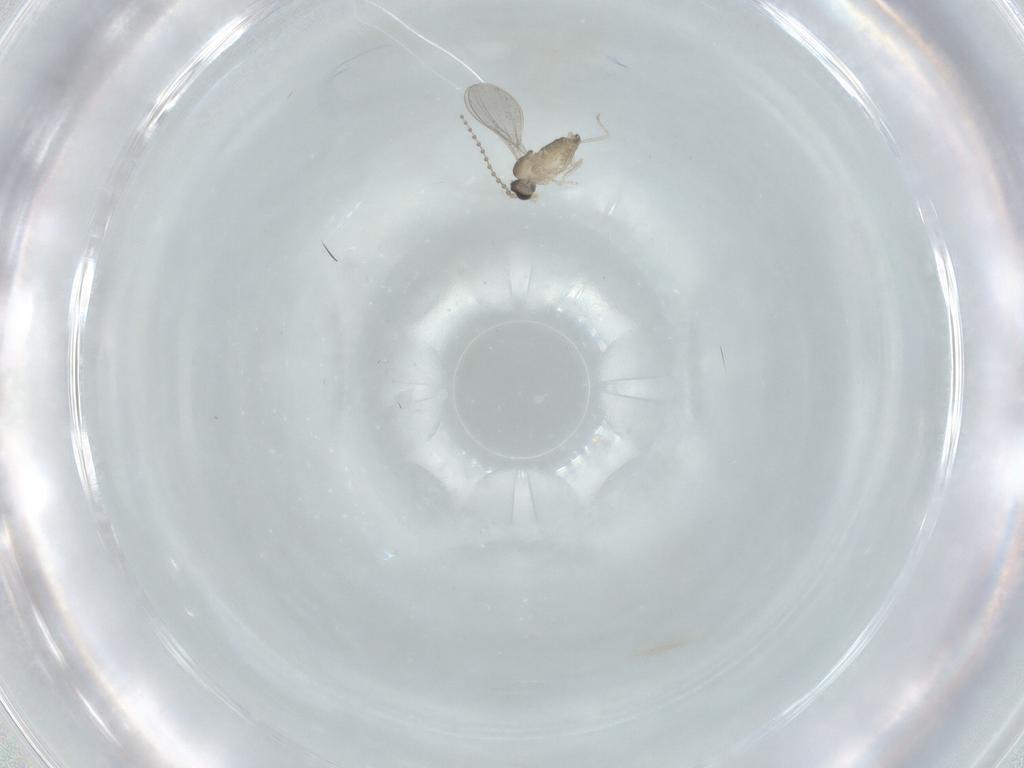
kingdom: Animalia
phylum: Arthropoda
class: Insecta
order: Diptera
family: Cecidomyiidae
